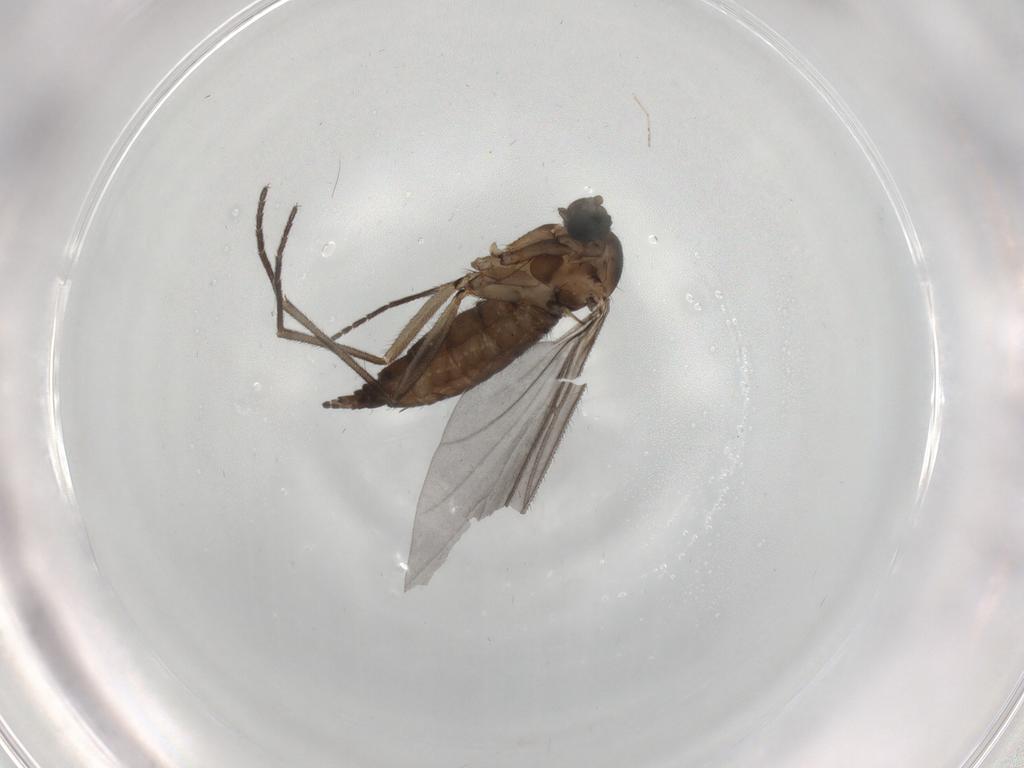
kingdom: Animalia
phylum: Arthropoda
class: Insecta
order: Diptera
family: Sciaridae
